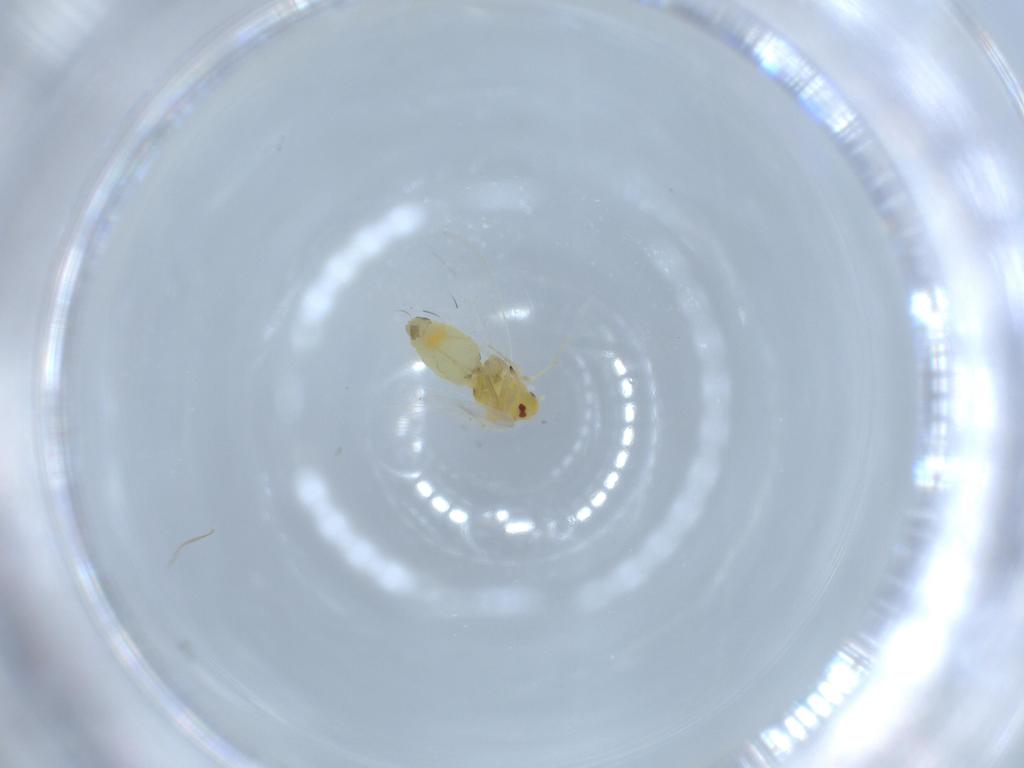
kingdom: Animalia
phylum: Arthropoda
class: Insecta
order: Hemiptera
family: Aleyrodidae
